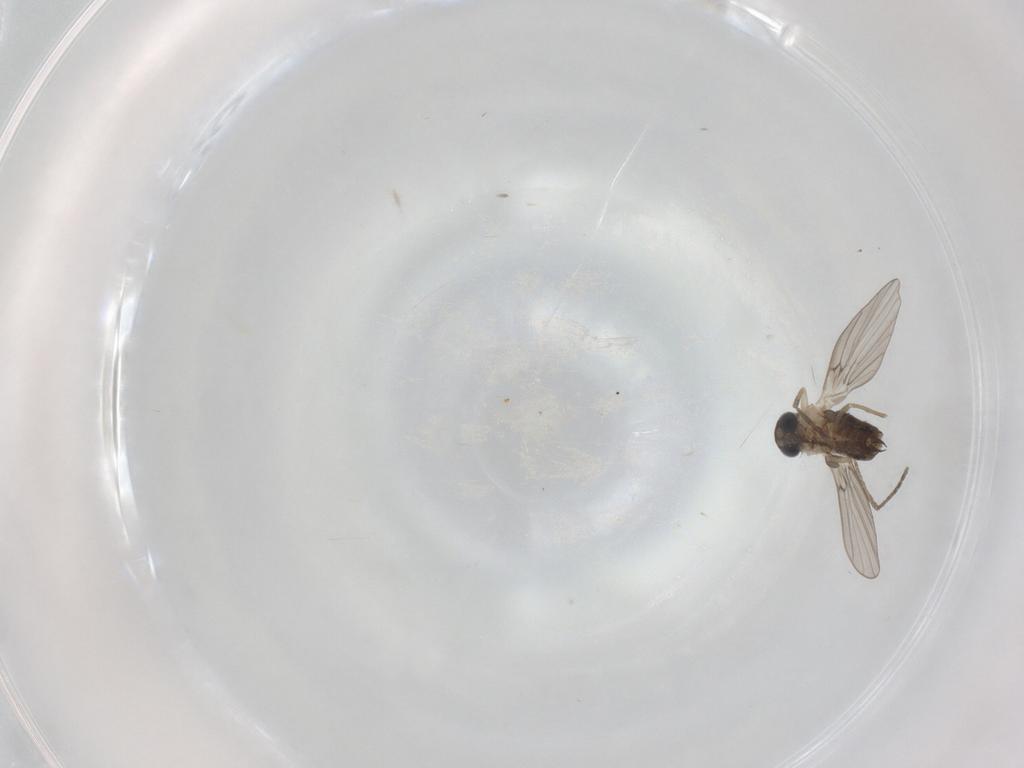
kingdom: Animalia
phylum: Arthropoda
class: Insecta
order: Diptera
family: Psychodidae
